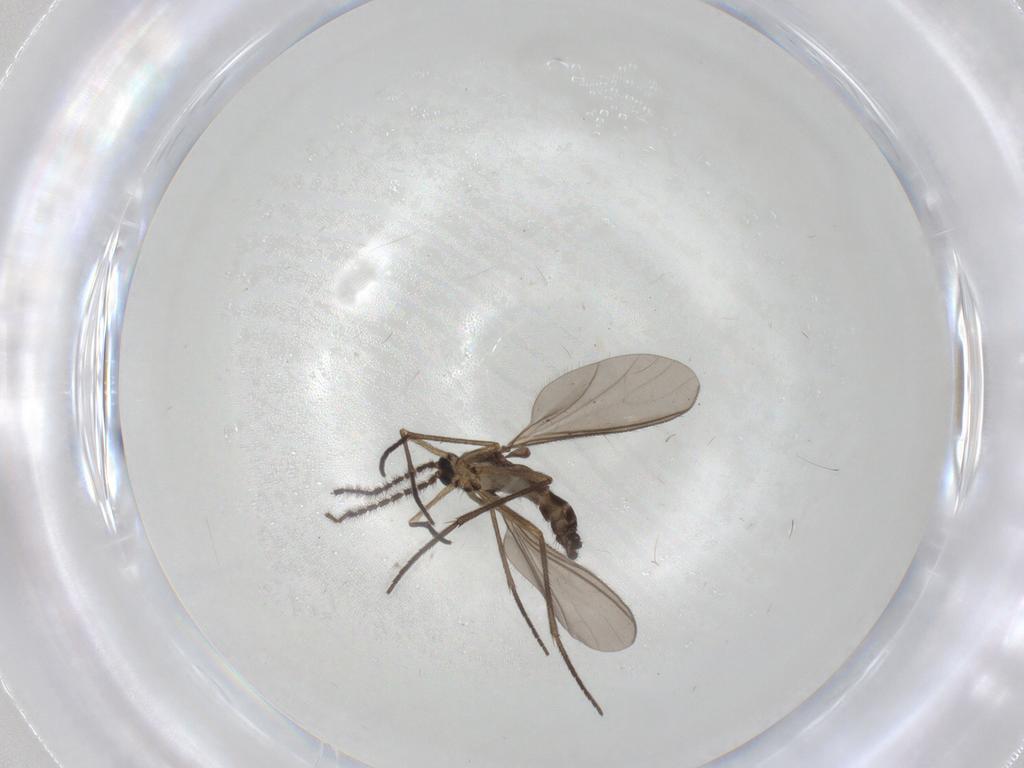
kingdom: Animalia
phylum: Arthropoda
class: Insecta
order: Diptera
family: Sciaridae
